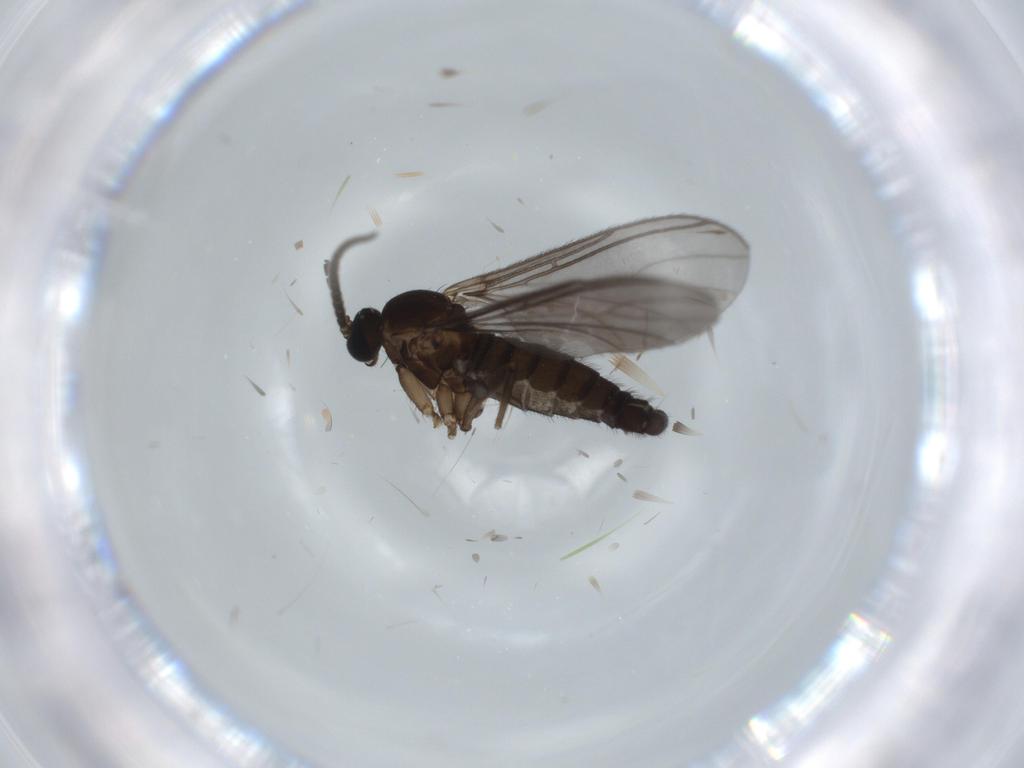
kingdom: Animalia
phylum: Arthropoda
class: Insecta
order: Diptera
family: Sciaridae
